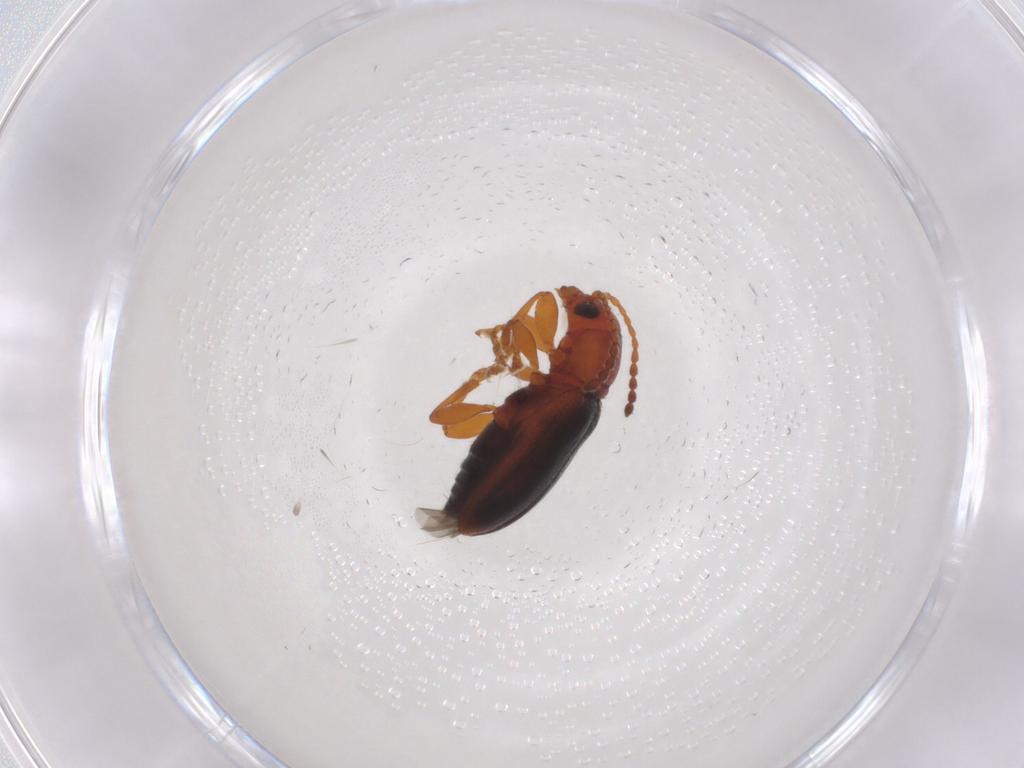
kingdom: Animalia
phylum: Arthropoda
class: Insecta
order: Coleoptera
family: Chrysomelidae
